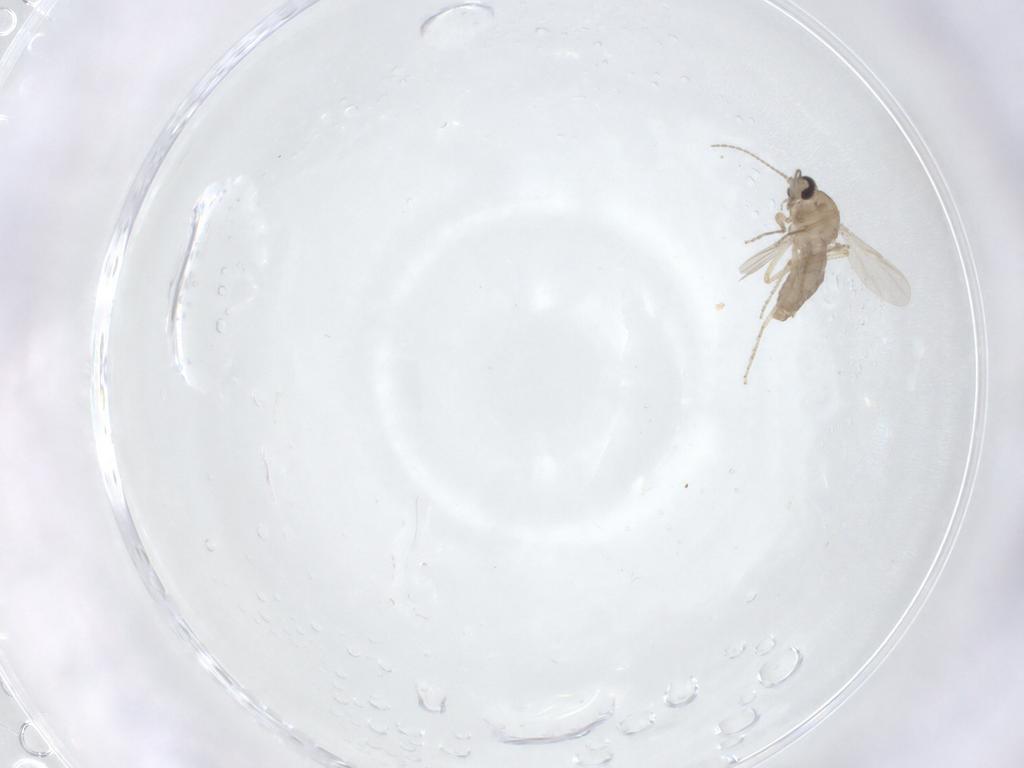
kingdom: Animalia
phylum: Arthropoda
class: Insecta
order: Diptera
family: Ceratopogonidae
